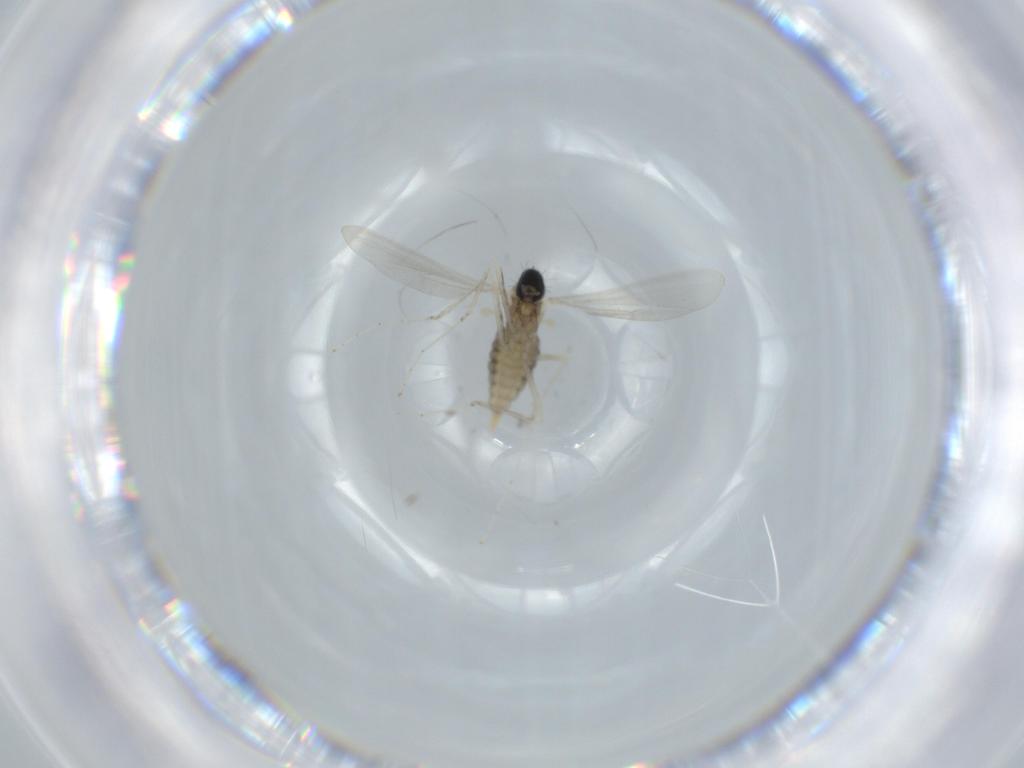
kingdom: Animalia
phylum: Arthropoda
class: Insecta
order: Diptera
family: Cecidomyiidae
